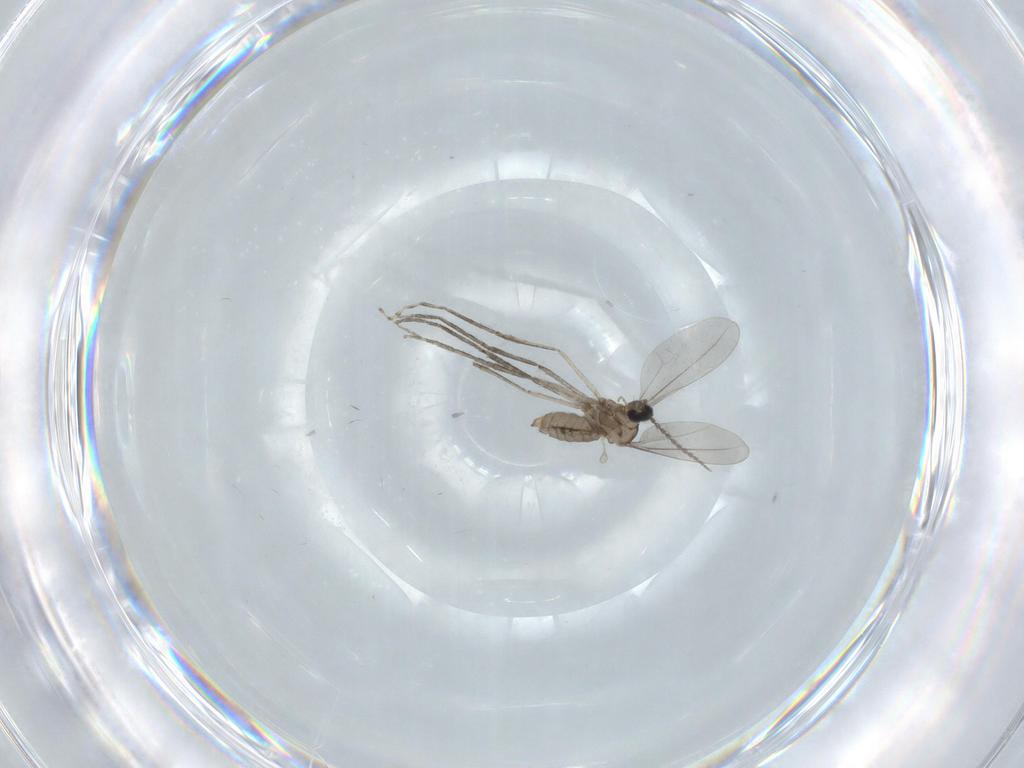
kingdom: Animalia
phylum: Arthropoda
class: Insecta
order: Diptera
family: Cecidomyiidae
